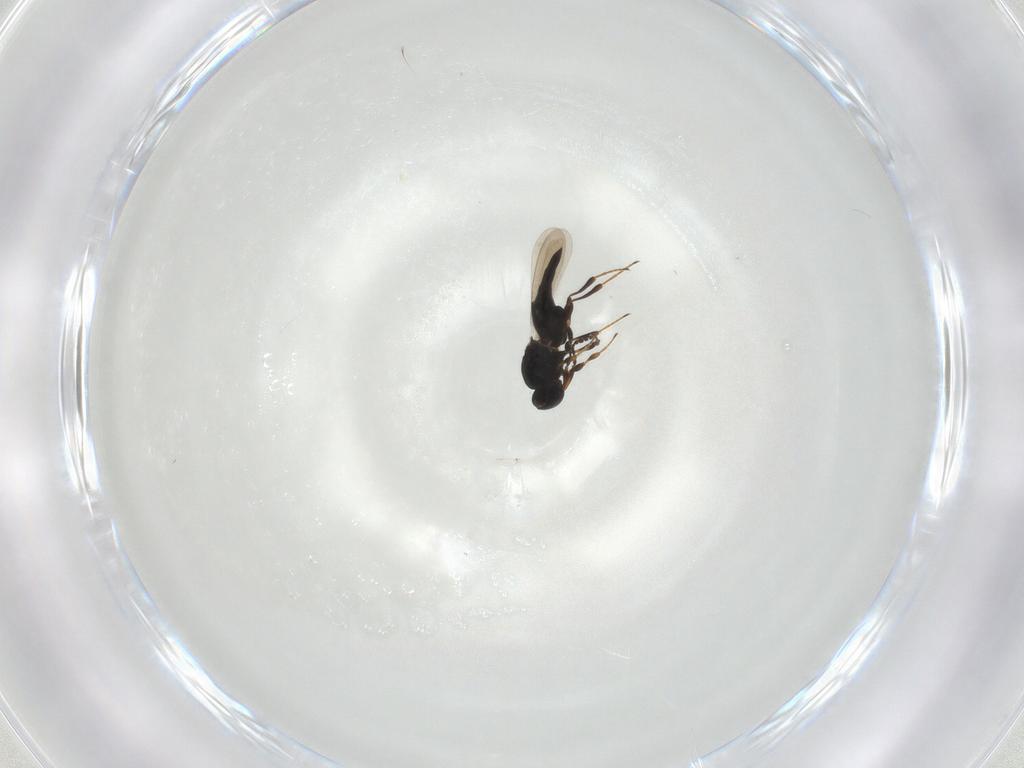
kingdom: Animalia
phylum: Arthropoda
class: Insecta
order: Hymenoptera
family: Platygastridae
